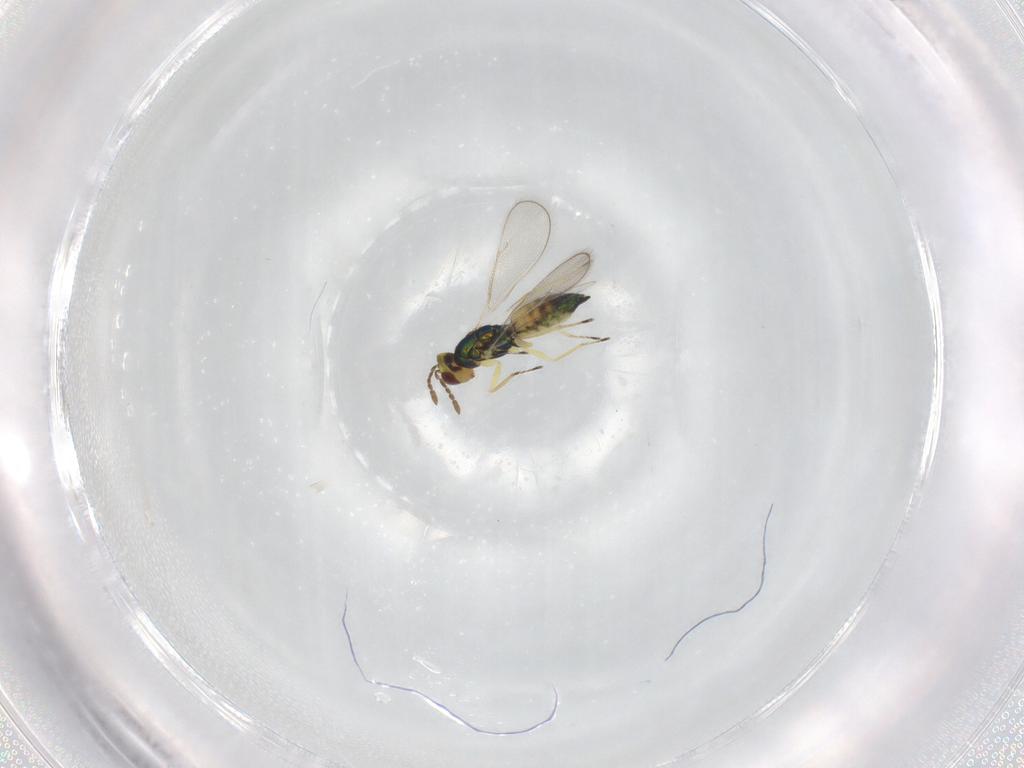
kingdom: Animalia
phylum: Arthropoda
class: Insecta
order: Hymenoptera
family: Eulophidae
